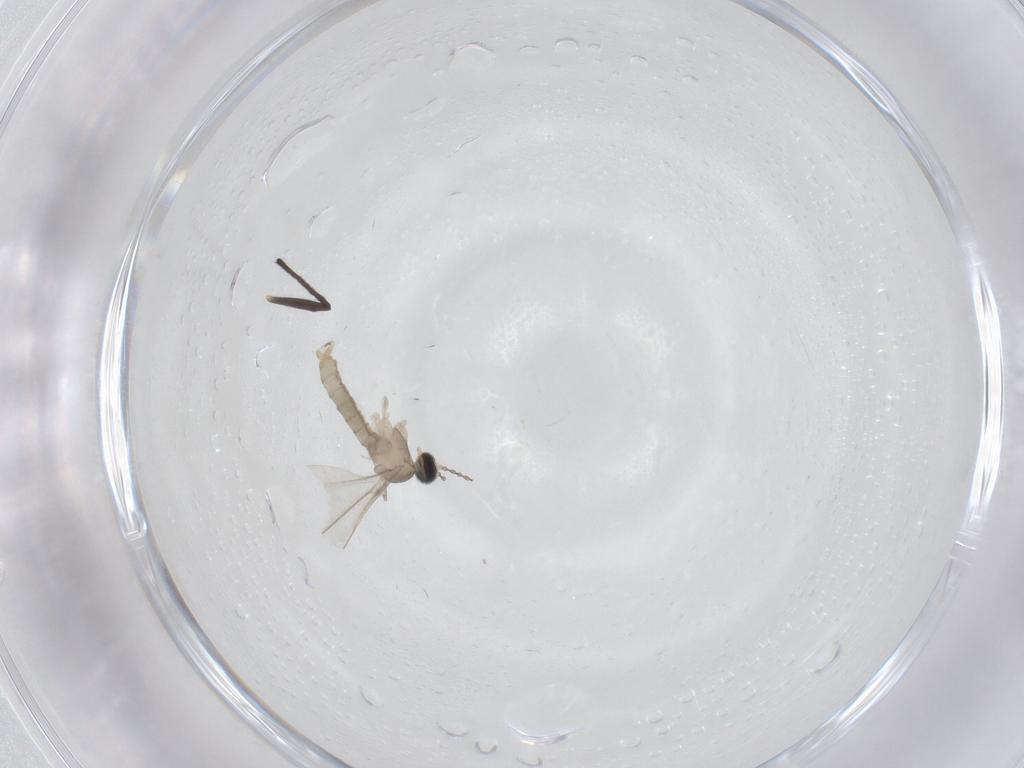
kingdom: Animalia
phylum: Arthropoda
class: Insecta
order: Diptera
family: Cecidomyiidae
